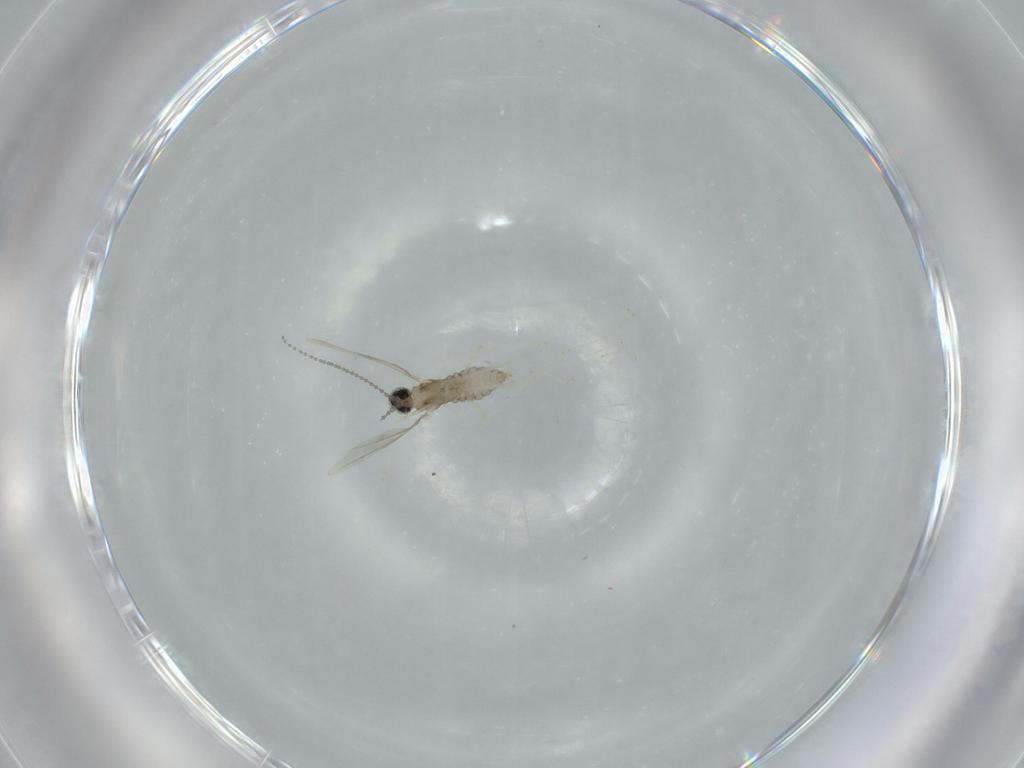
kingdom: Animalia
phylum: Arthropoda
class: Insecta
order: Diptera
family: Cecidomyiidae
